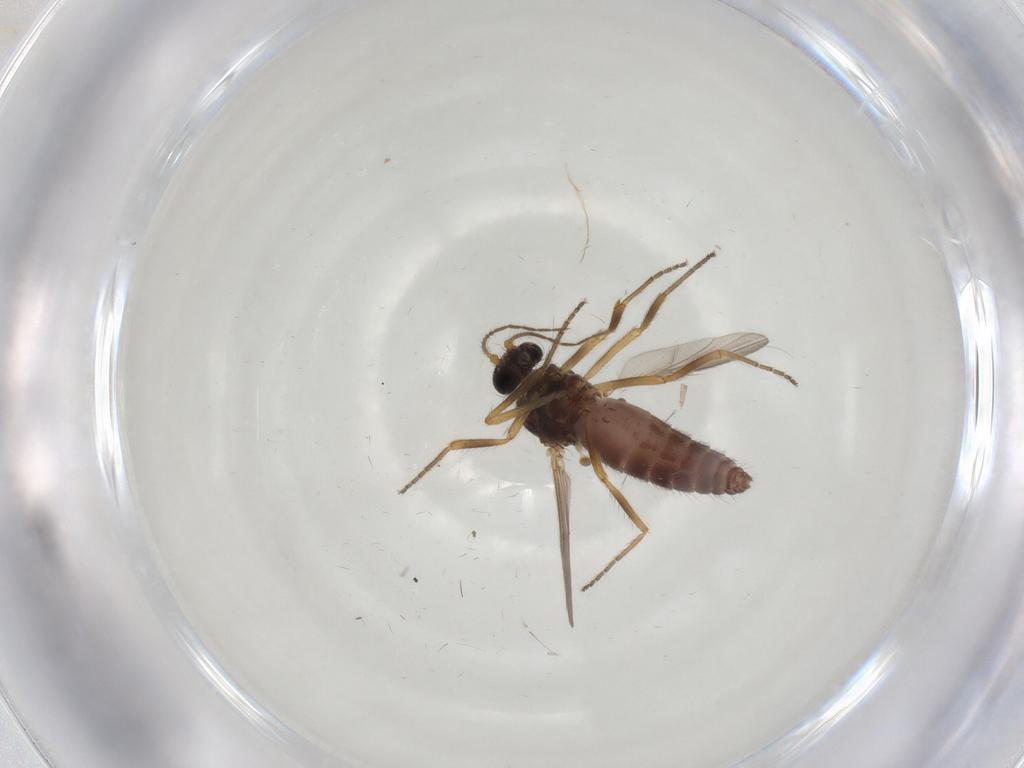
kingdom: Animalia
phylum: Arthropoda
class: Insecta
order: Diptera
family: Ceratopogonidae
